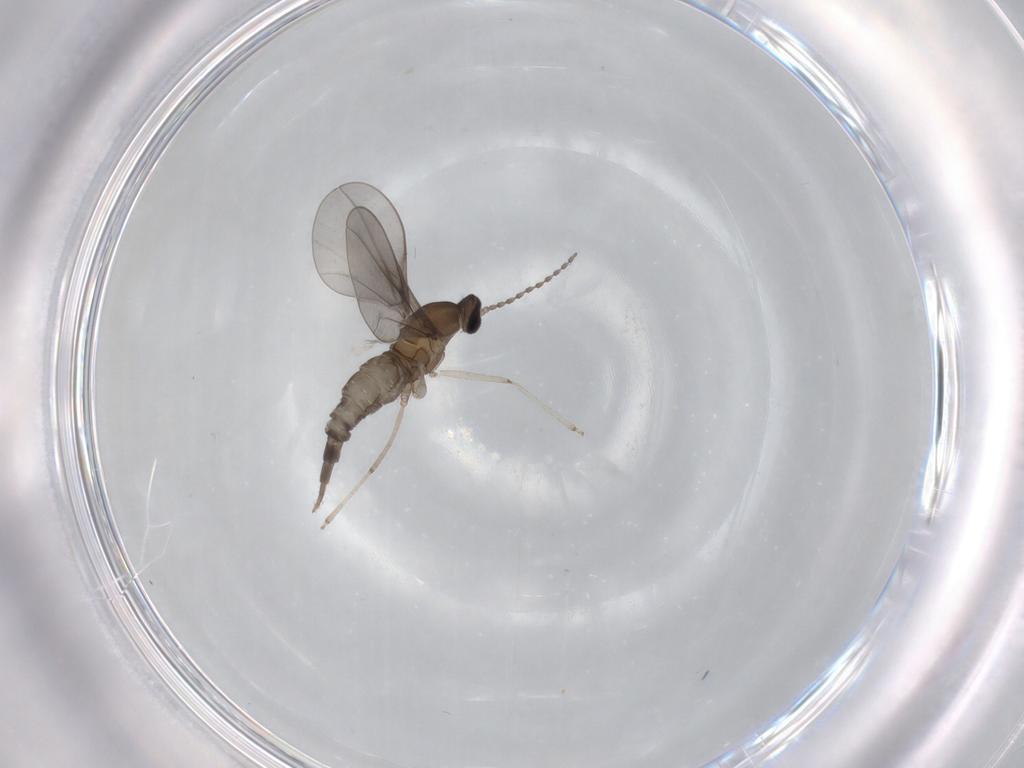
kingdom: Animalia
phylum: Arthropoda
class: Insecta
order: Diptera
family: Cecidomyiidae
